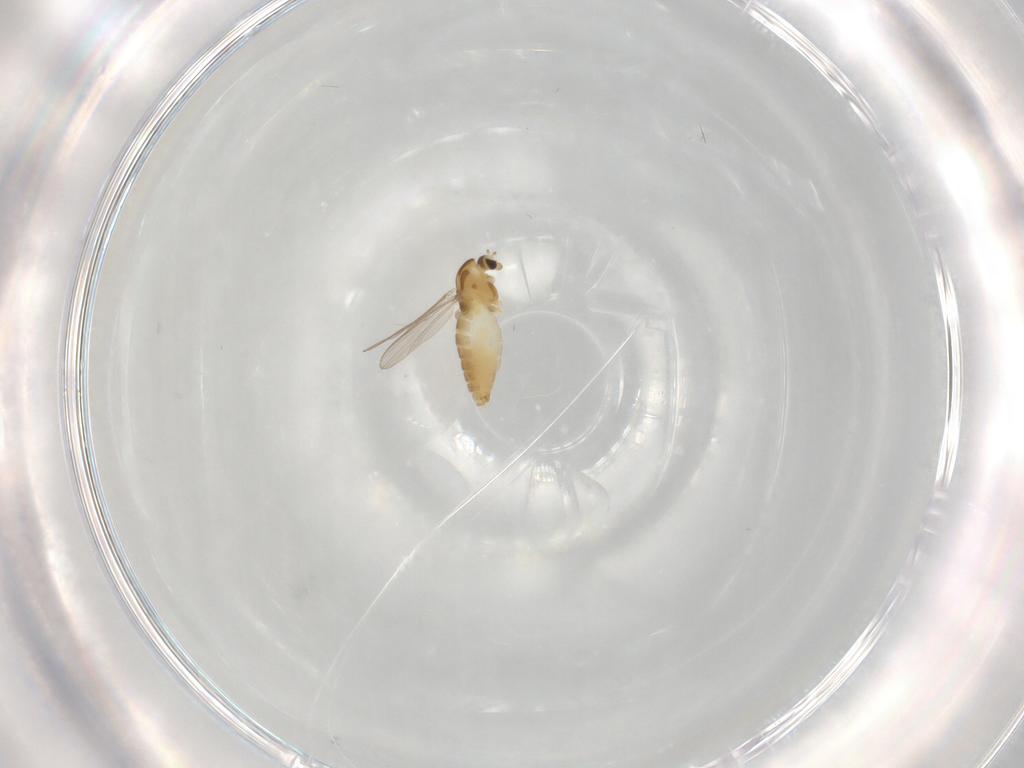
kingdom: Animalia
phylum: Arthropoda
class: Insecta
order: Diptera
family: Chironomidae
